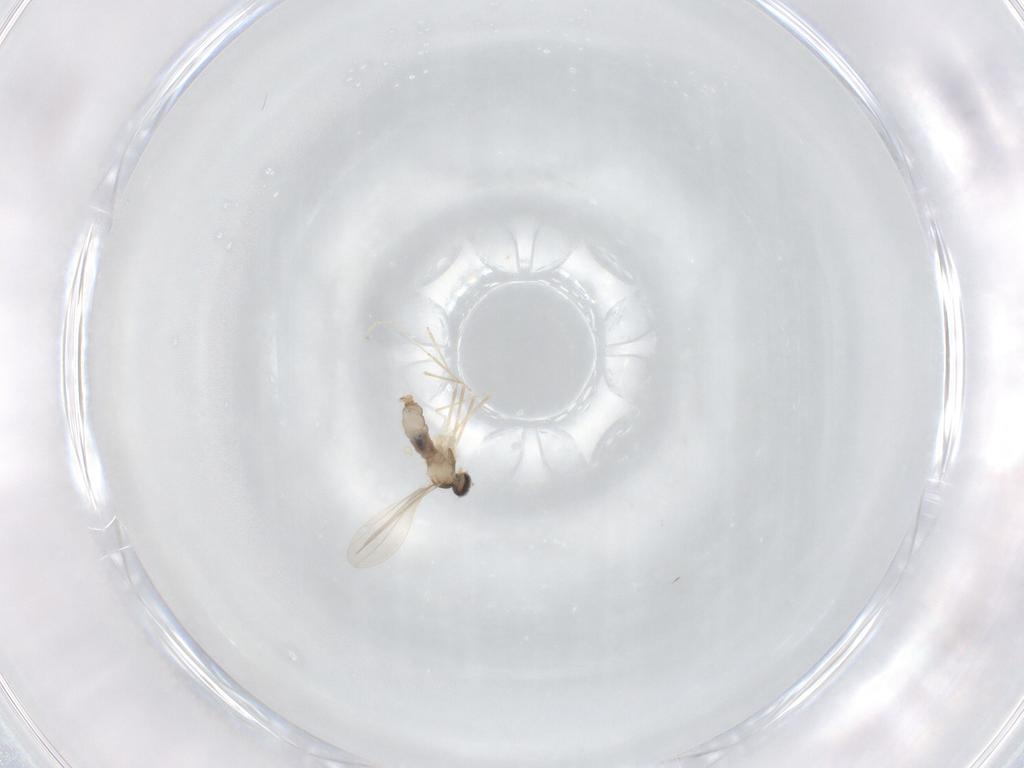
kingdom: Animalia
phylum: Arthropoda
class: Insecta
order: Diptera
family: Cecidomyiidae
